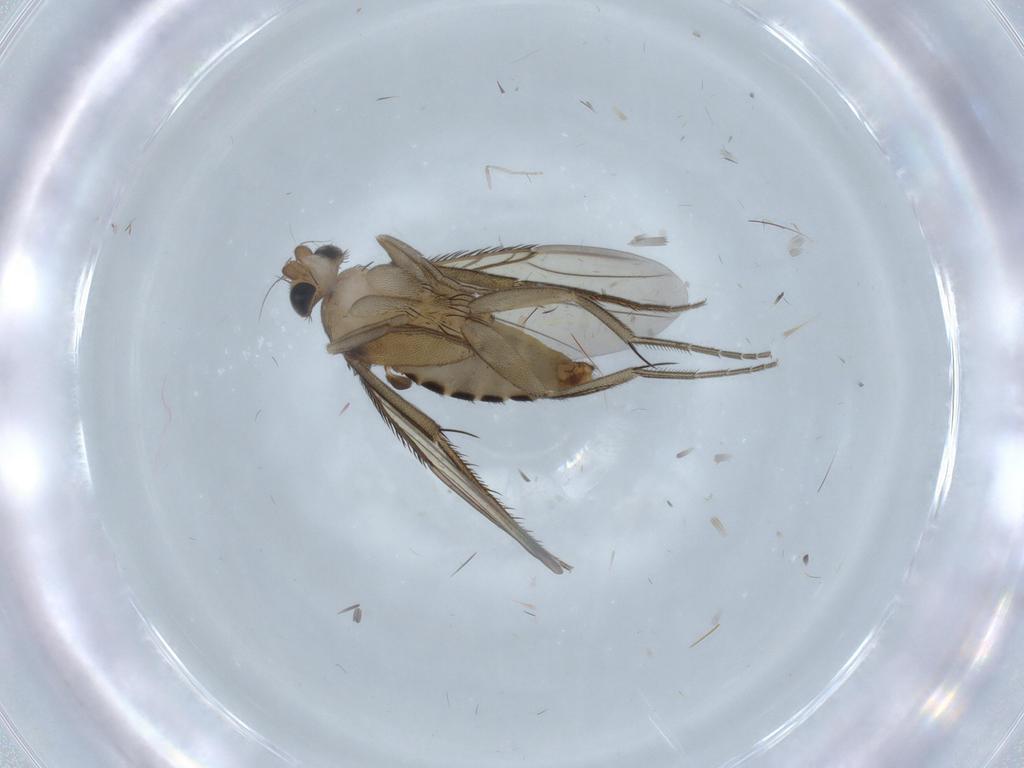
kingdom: Animalia
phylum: Arthropoda
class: Insecta
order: Diptera
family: Phoridae
